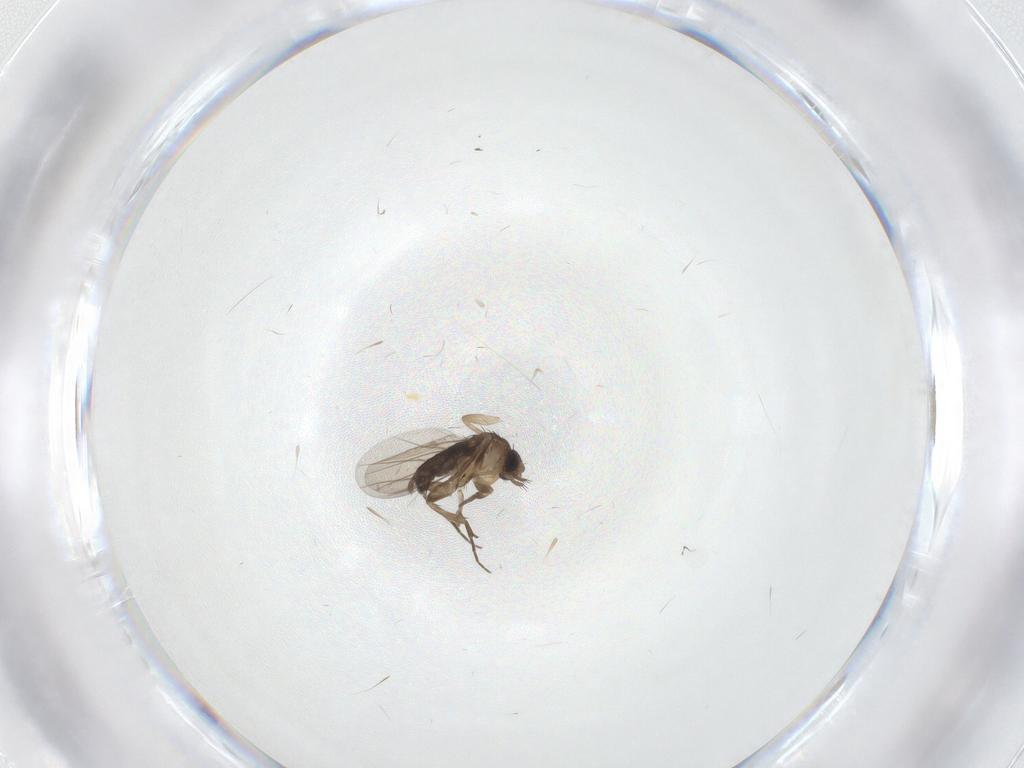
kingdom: Animalia
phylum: Arthropoda
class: Insecta
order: Diptera
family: Phoridae
